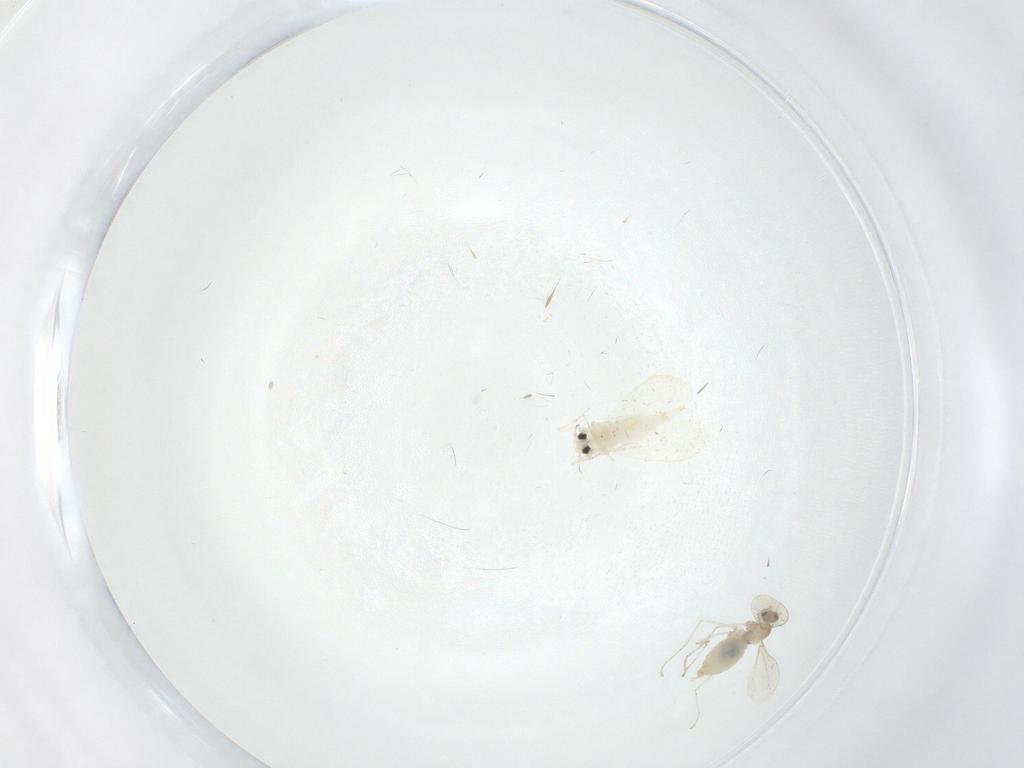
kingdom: Animalia
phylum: Arthropoda
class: Insecta
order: Hemiptera
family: Aleyrodidae
